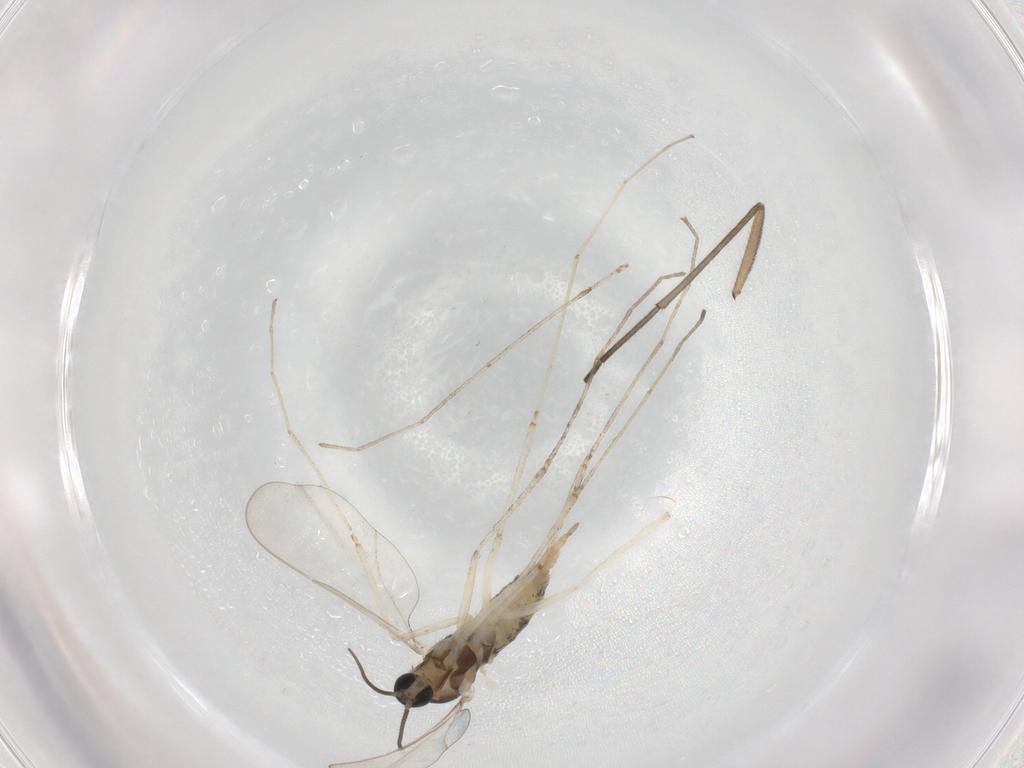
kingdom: Animalia
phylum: Arthropoda
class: Insecta
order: Diptera
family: Sciaridae
